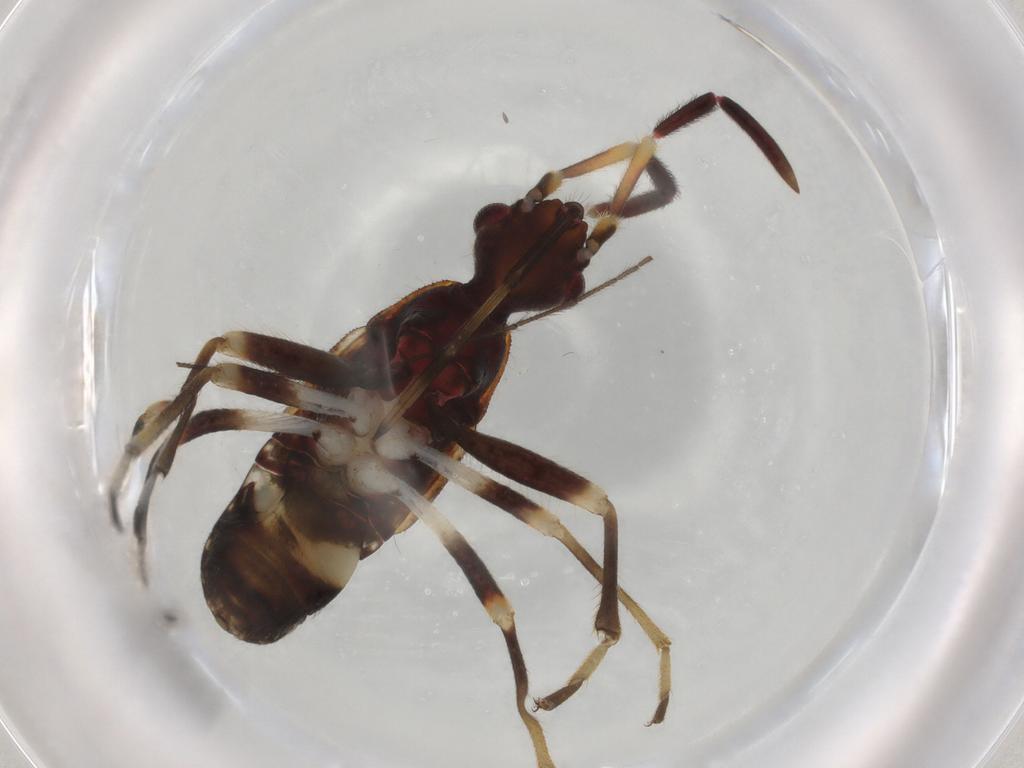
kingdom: Animalia
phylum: Arthropoda
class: Insecta
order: Hemiptera
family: Rhyparochromidae
